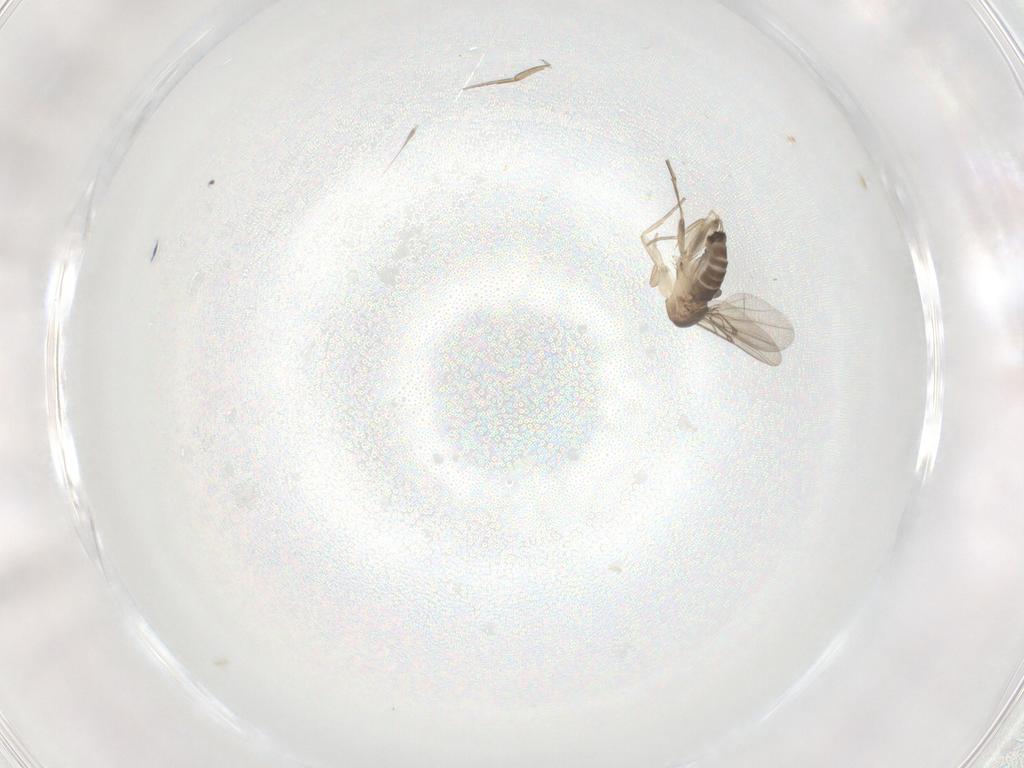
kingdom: Animalia
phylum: Arthropoda
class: Insecta
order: Diptera
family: Phoridae
